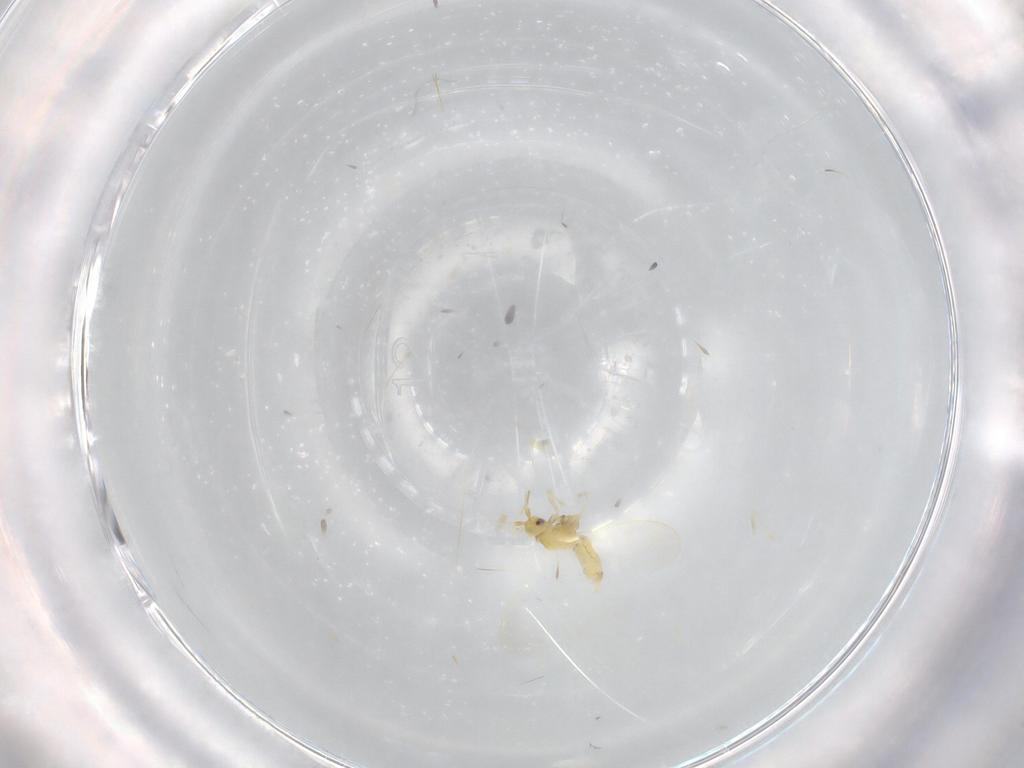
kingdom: Animalia
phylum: Arthropoda
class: Insecta
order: Hemiptera
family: Aleyrodidae
